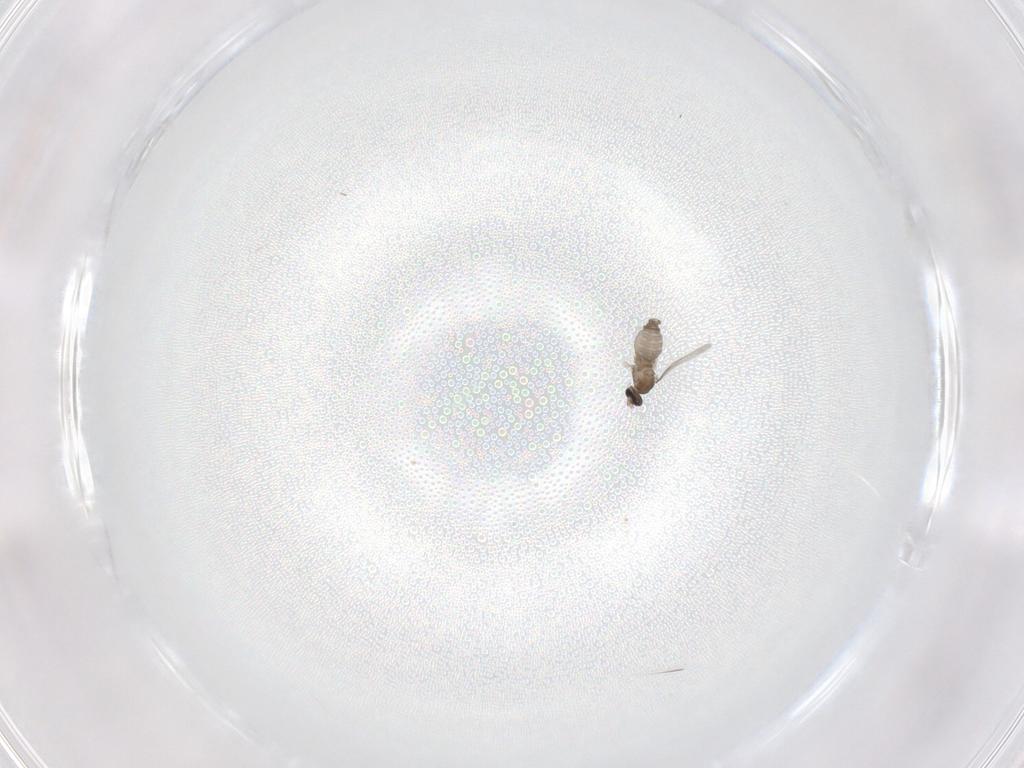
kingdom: Animalia
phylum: Arthropoda
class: Insecta
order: Diptera
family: Cecidomyiidae
